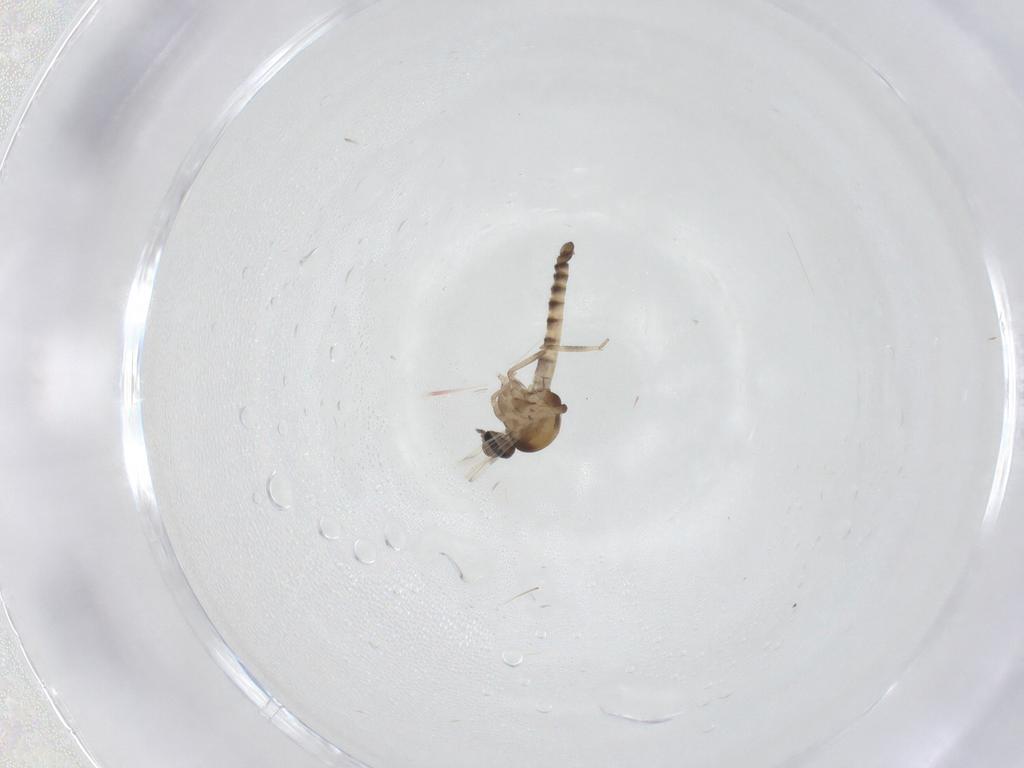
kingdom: Animalia
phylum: Arthropoda
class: Insecta
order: Diptera
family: Ceratopogonidae
